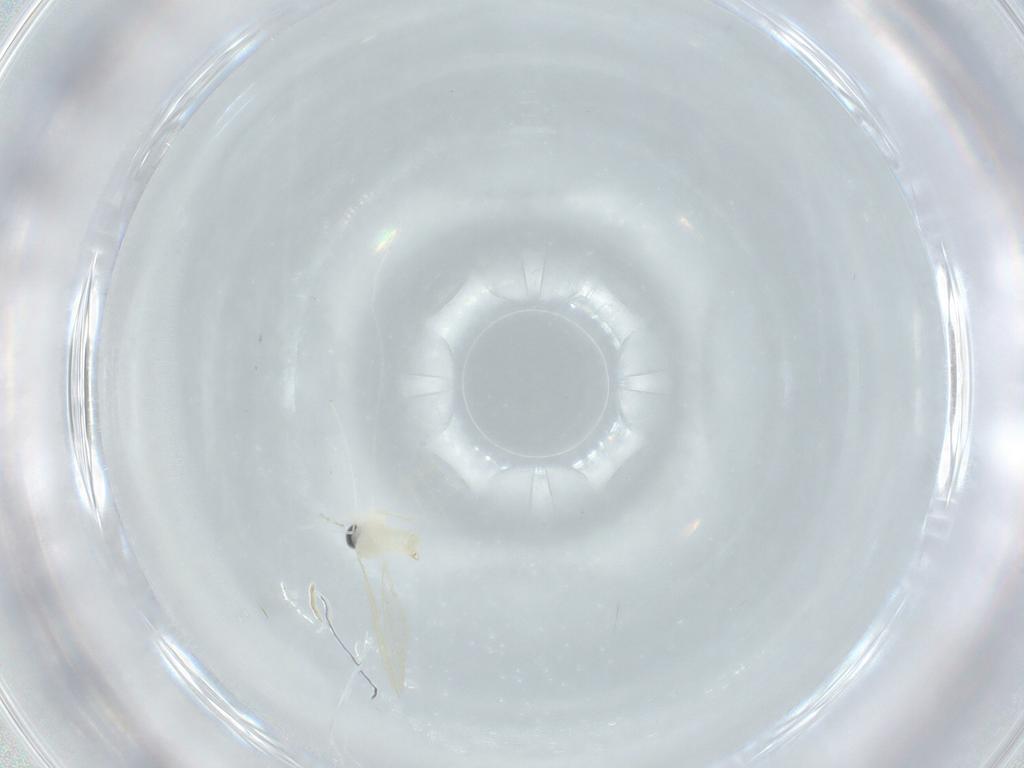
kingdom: Animalia
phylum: Arthropoda
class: Insecta
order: Diptera
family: Cecidomyiidae
